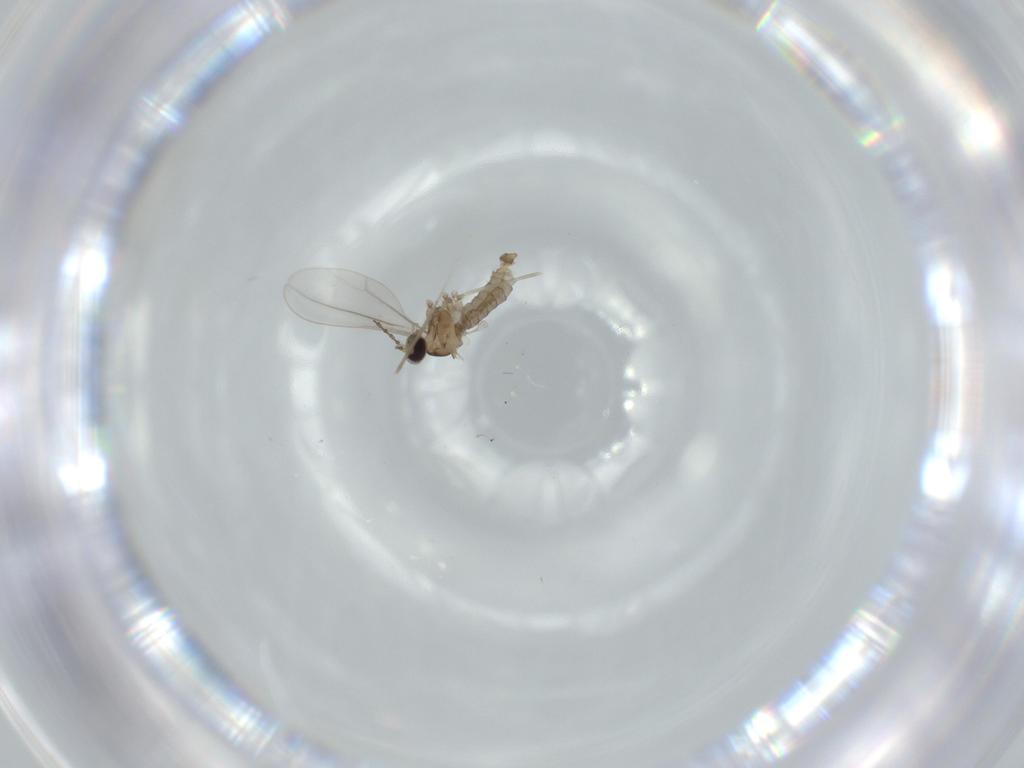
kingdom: Animalia
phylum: Arthropoda
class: Insecta
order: Diptera
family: Cecidomyiidae
